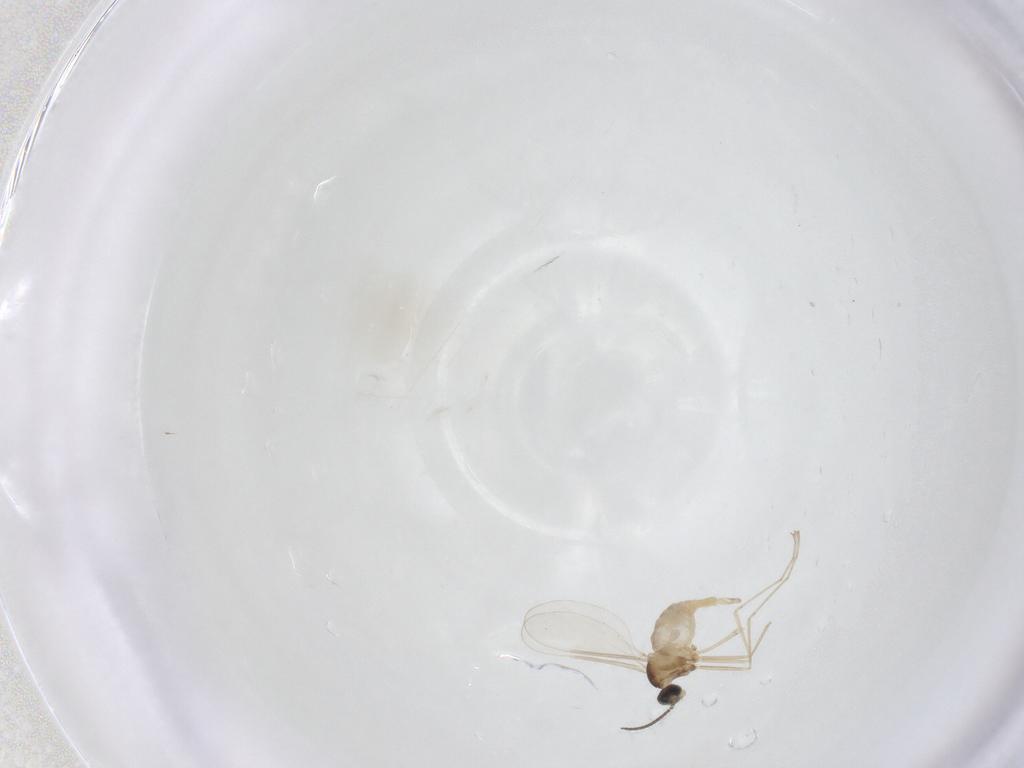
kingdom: Animalia
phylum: Arthropoda
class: Insecta
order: Diptera
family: Cecidomyiidae
